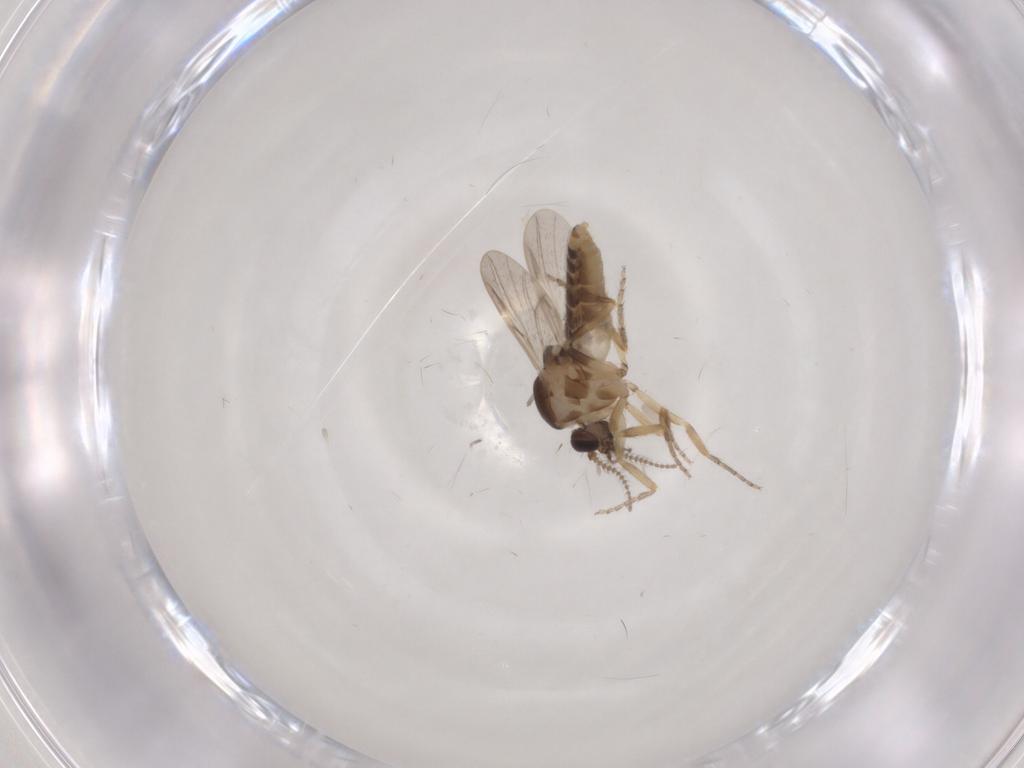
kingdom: Animalia
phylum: Arthropoda
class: Insecta
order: Diptera
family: Ceratopogonidae
